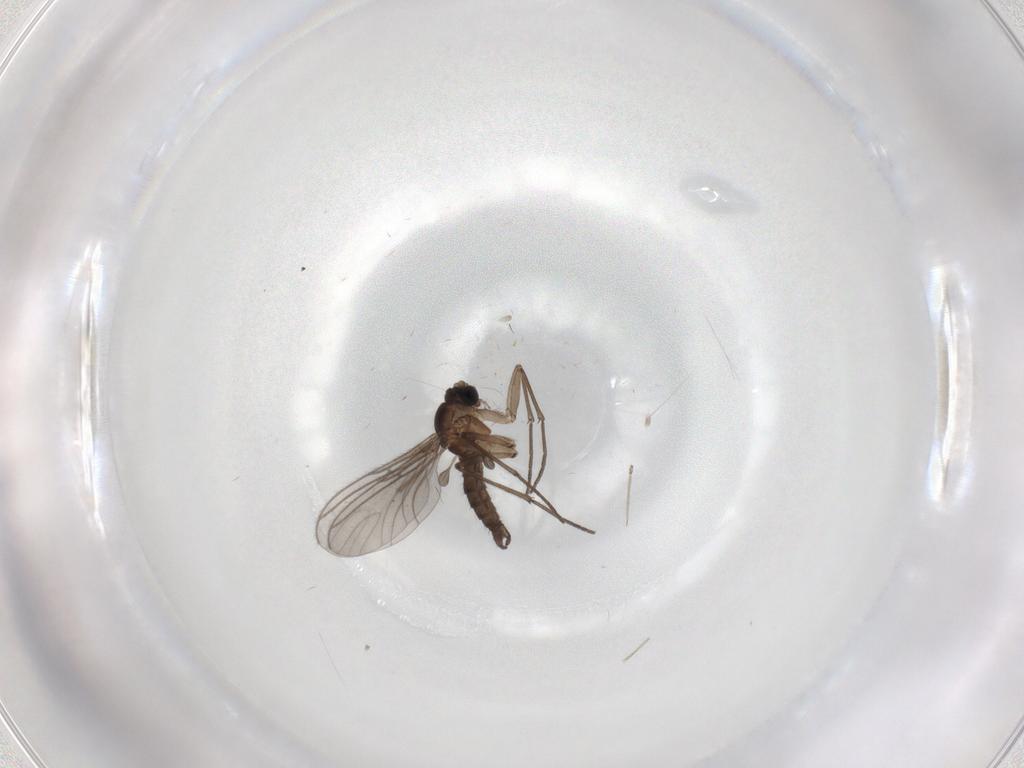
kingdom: Animalia
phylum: Arthropoda
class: Insecta
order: Diptera
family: Cecidomyiidae
